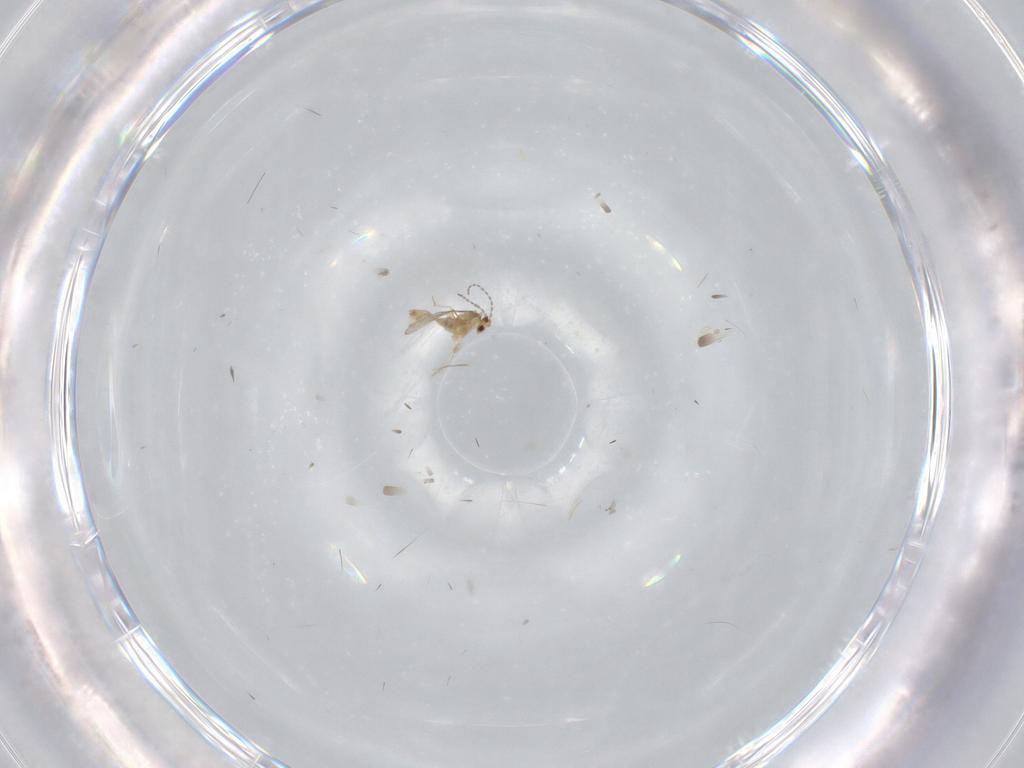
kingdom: Animalia
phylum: Arthropoda
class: Insecta
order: Diptera
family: Cecidomyiidae
